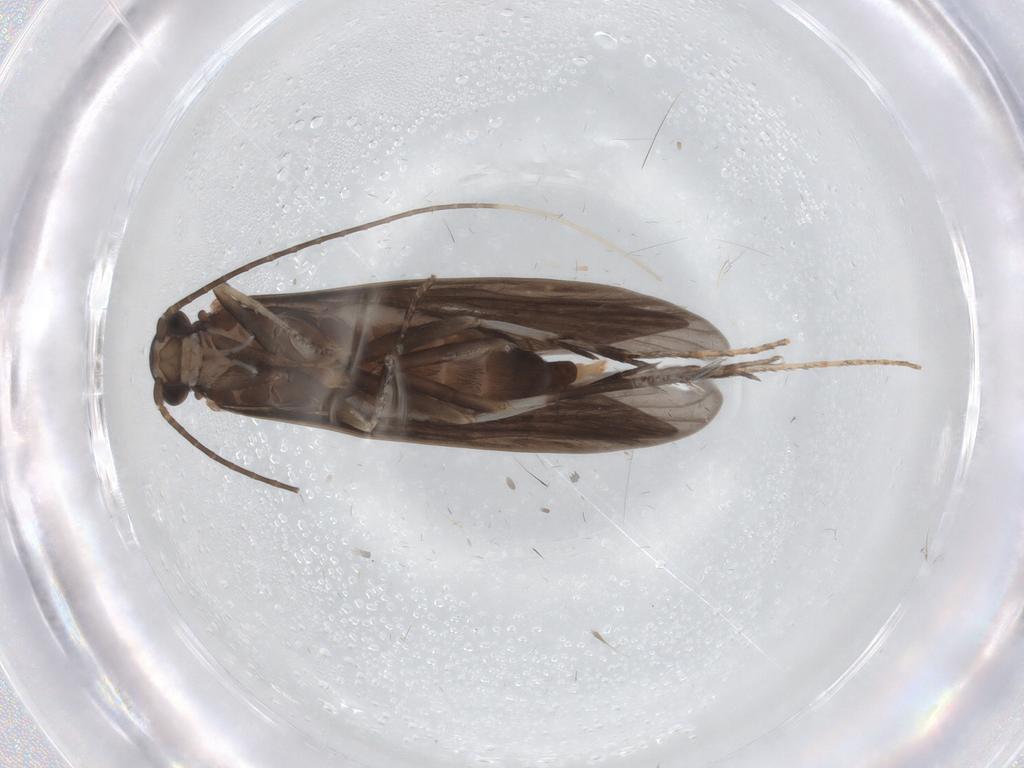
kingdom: Animalia
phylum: Arthropoda
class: Insecta
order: Trichoptera
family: Xiphocentronidae
